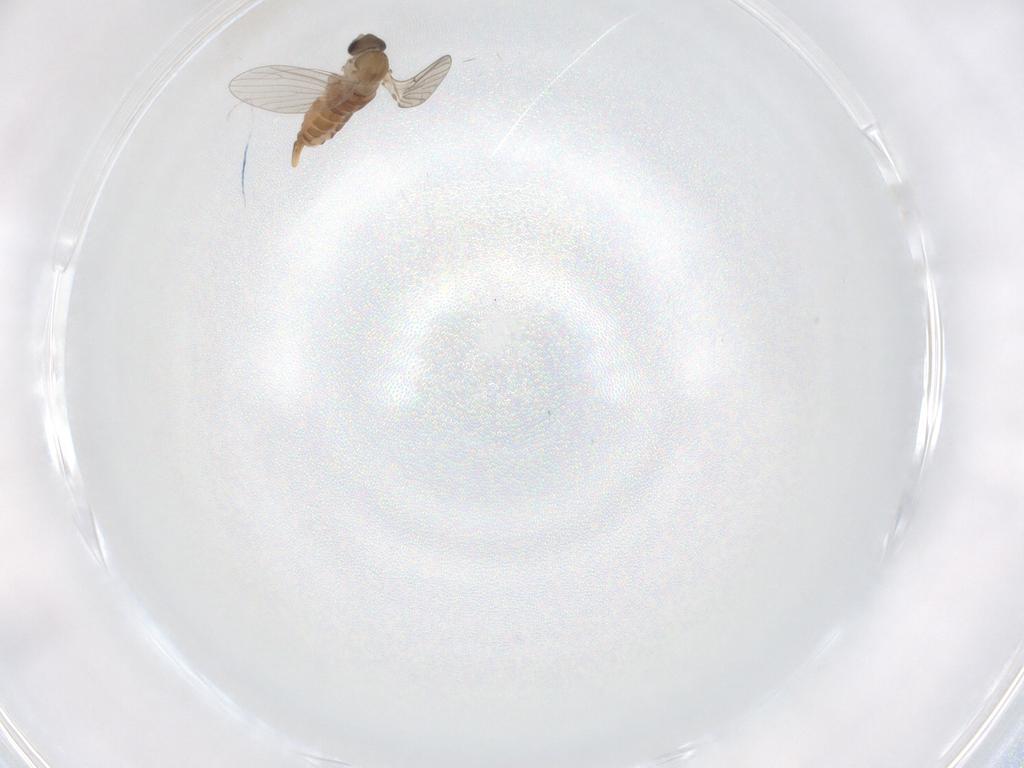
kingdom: Animalia
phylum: Arthropoda
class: Insecta
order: Diptera
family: Psychodidae
